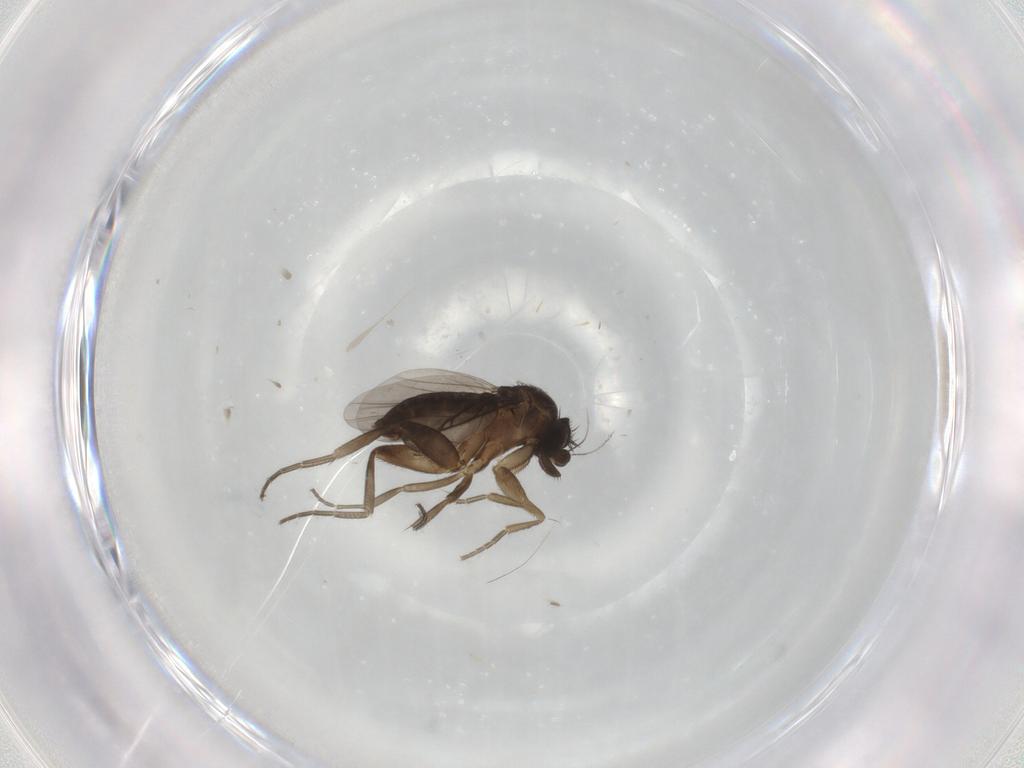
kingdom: Animalia
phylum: Arthropoda
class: Insecta
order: Diptera
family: Phoridae
